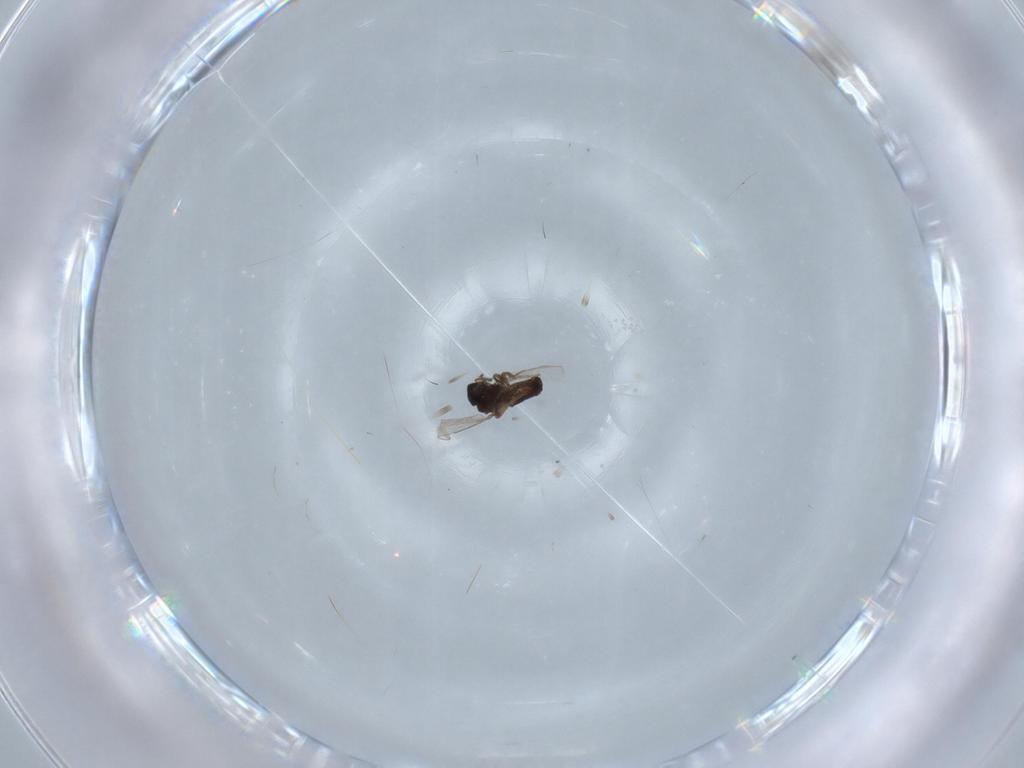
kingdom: Animalia
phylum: Arthropoda
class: Insecta
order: Diptera
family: Ceratopogonidae
